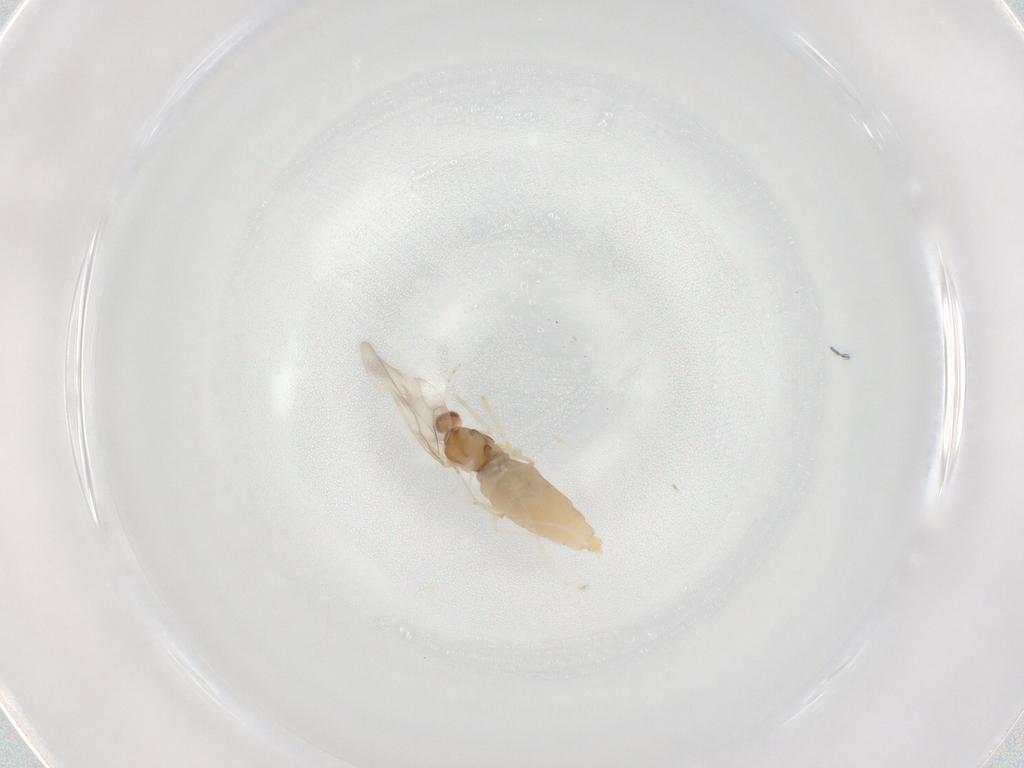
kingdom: Animalia
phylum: Arthropoda
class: Insecta
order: Diptera
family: Cecidomyiidae
